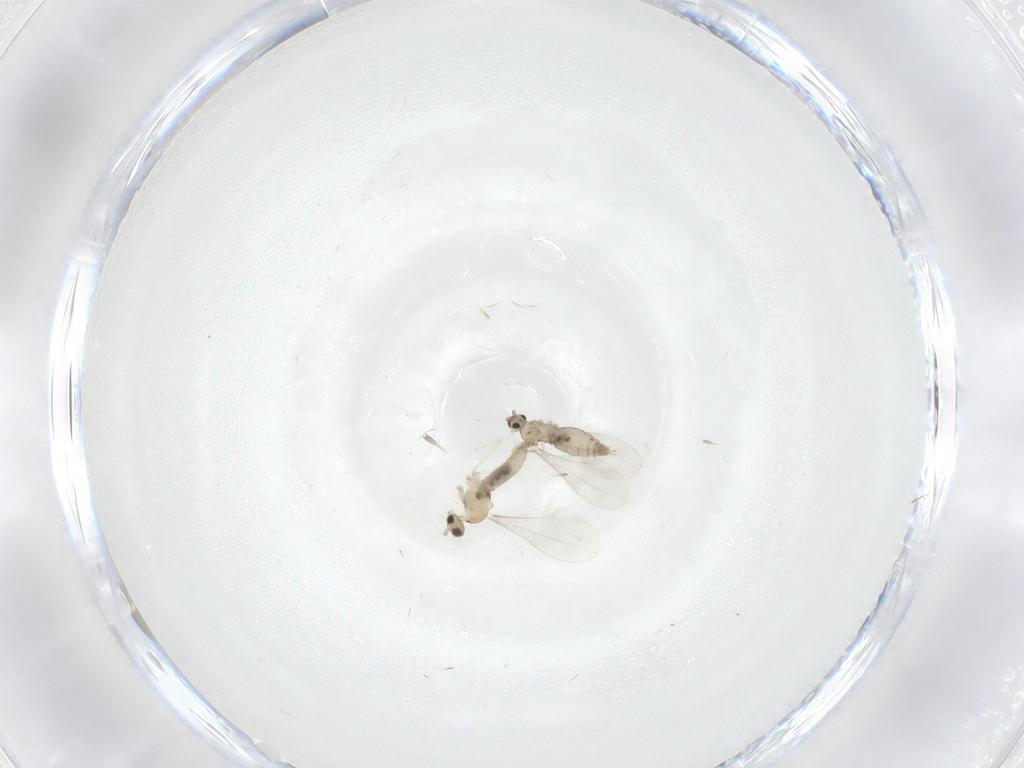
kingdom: Animalia
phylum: Arthropoda
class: Insecta
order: Diptera
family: Cecidomyiidae
